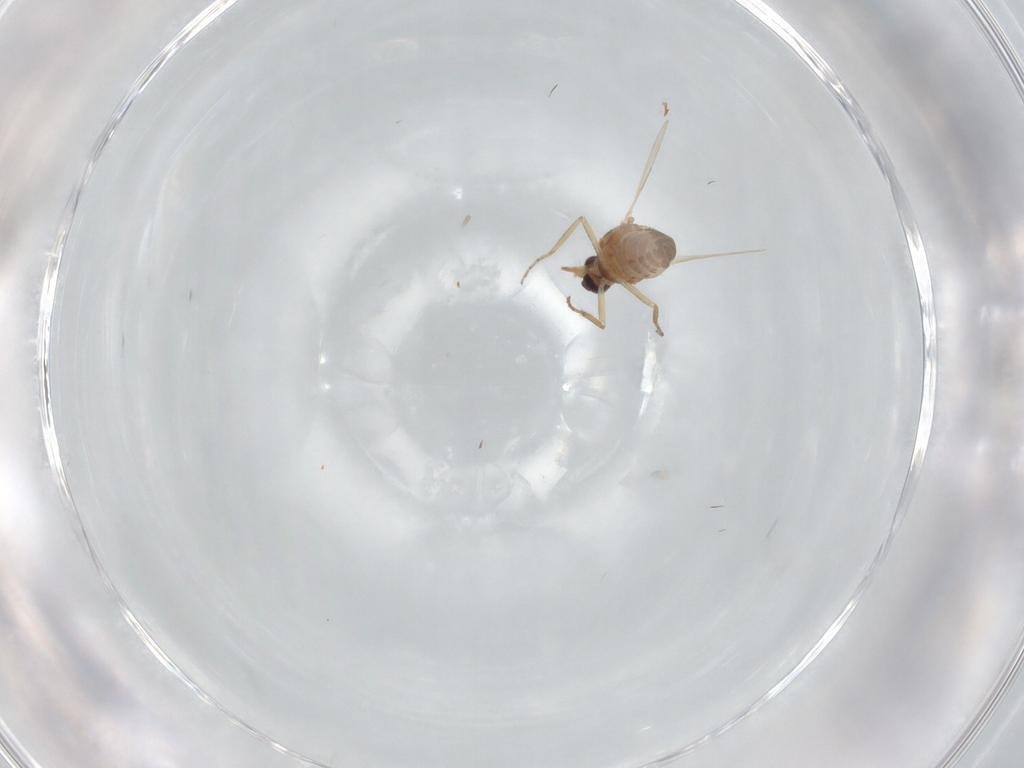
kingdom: Animalia
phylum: Arthropoda
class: Insecta
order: Diptera
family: Ceratopogonidae
